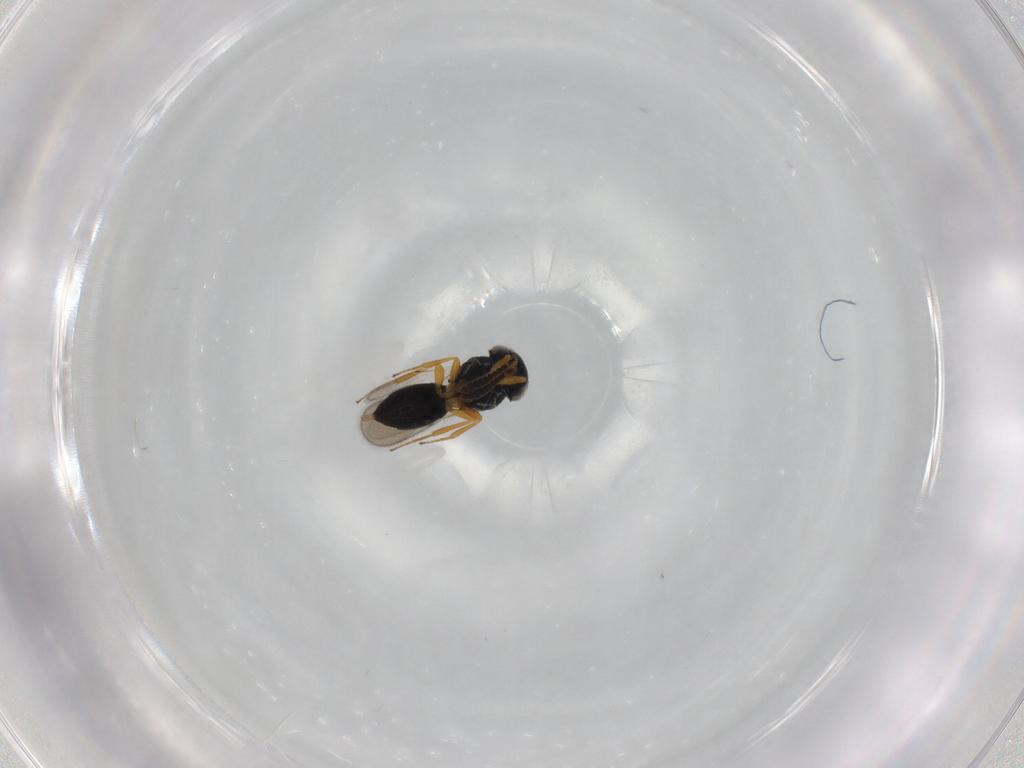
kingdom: Animalia
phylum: Arthropoda
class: Insecta
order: Hymenoptera
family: Scelionidae
